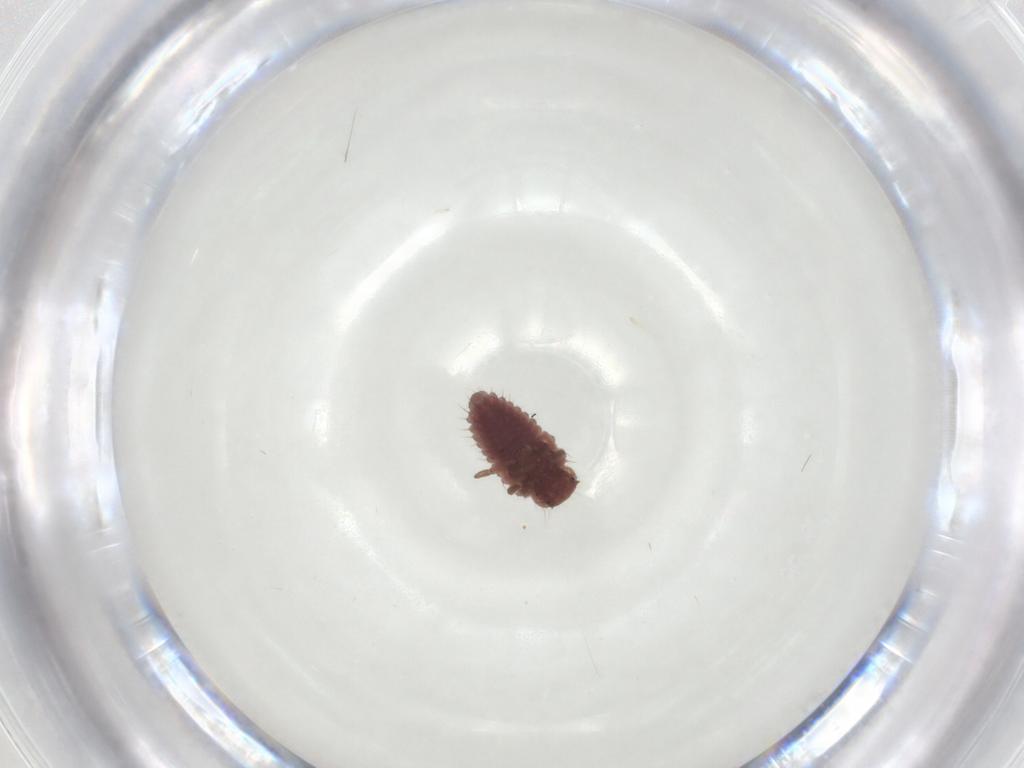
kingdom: Animalia
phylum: Arthropoda
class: Insecta
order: Coleoptera
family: Coccinellidae
